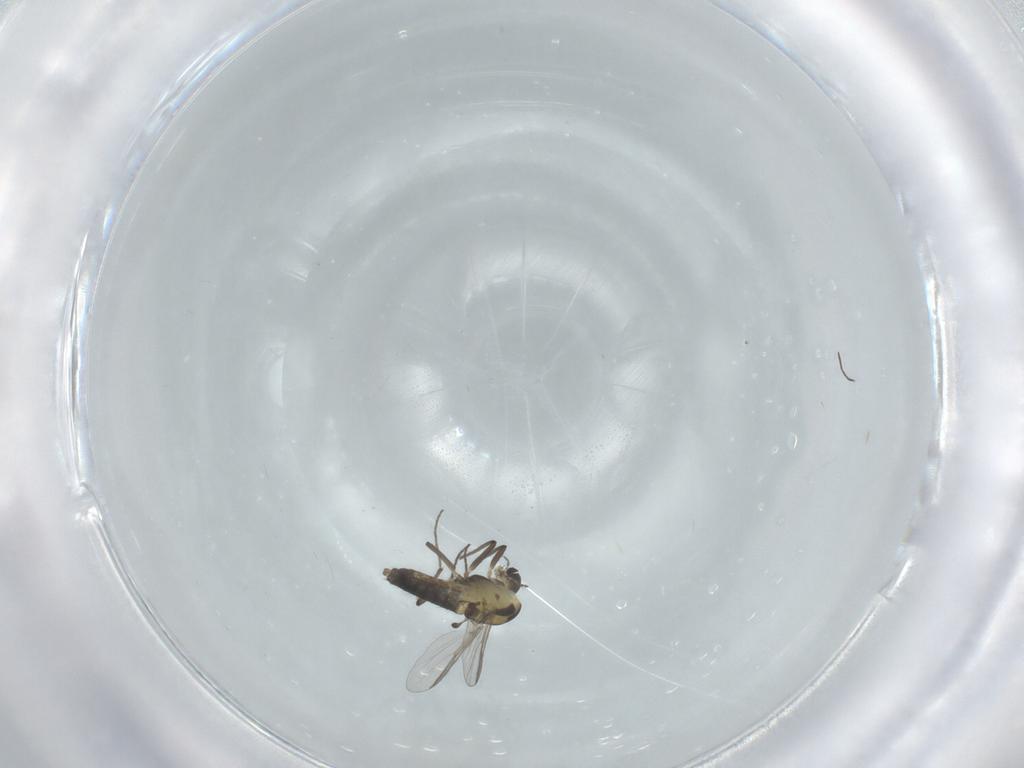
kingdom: Animalia
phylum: Arthropoda
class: Insecta
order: Diptera
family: Chironomidae
